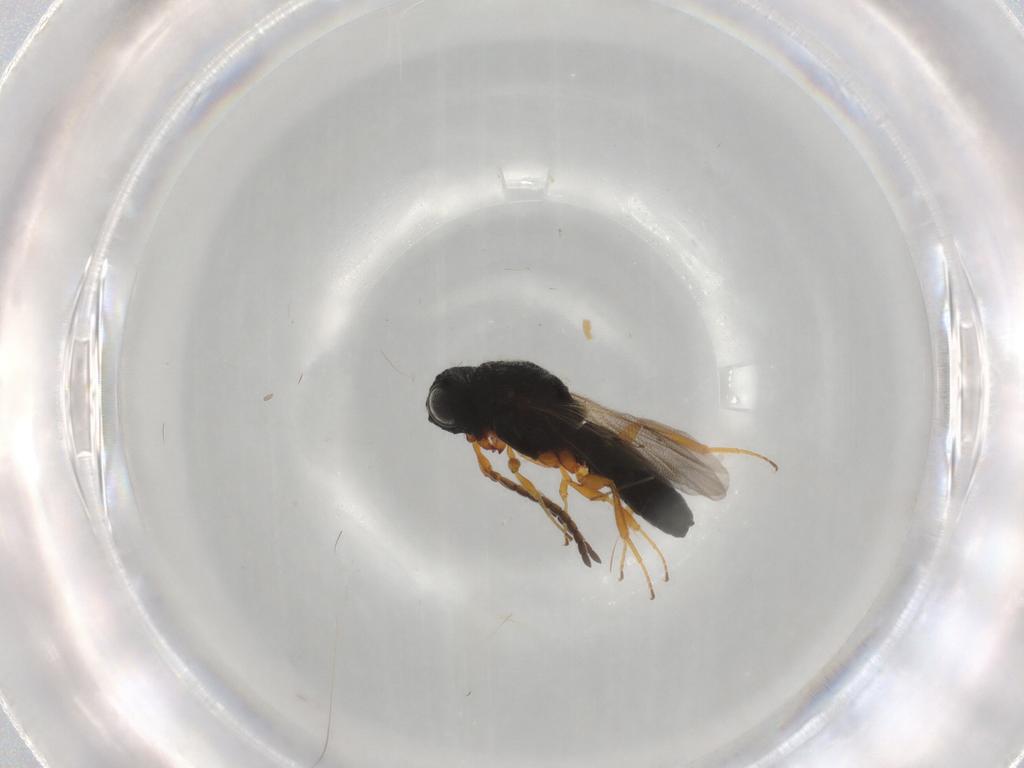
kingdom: Animalia
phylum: Arthropoda
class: Insecta
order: Hymenoptera
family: Scelionidae
